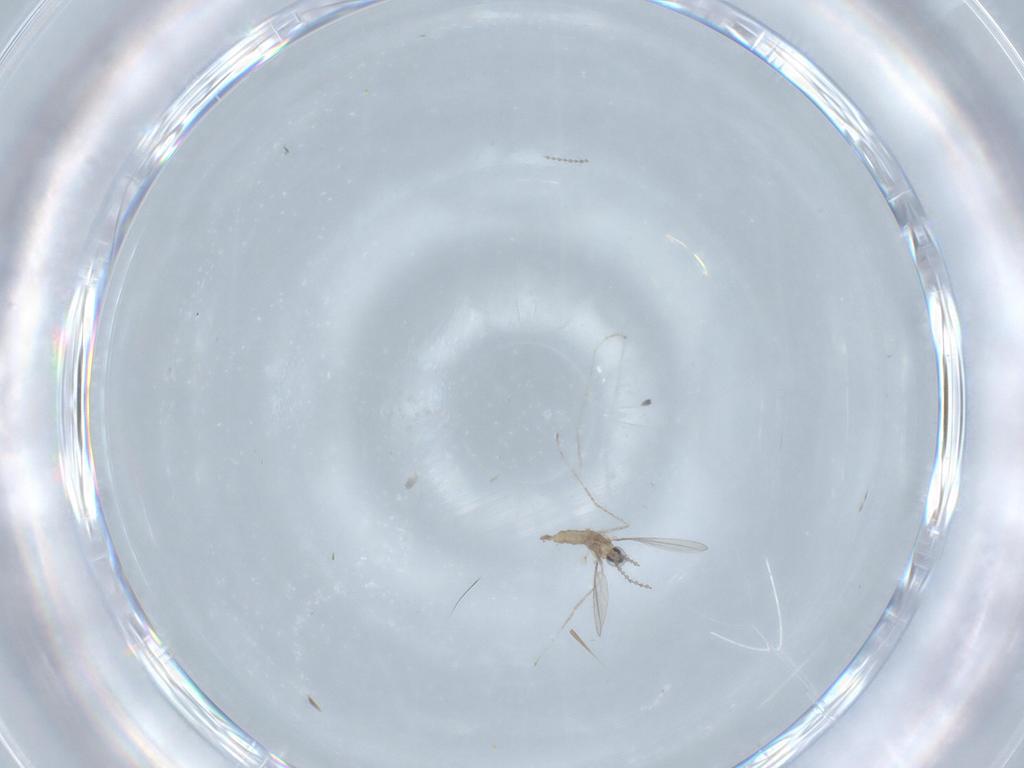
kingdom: Animalia
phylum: Arthropoda
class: Insecta
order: Diptera
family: Cecidomyiidae
